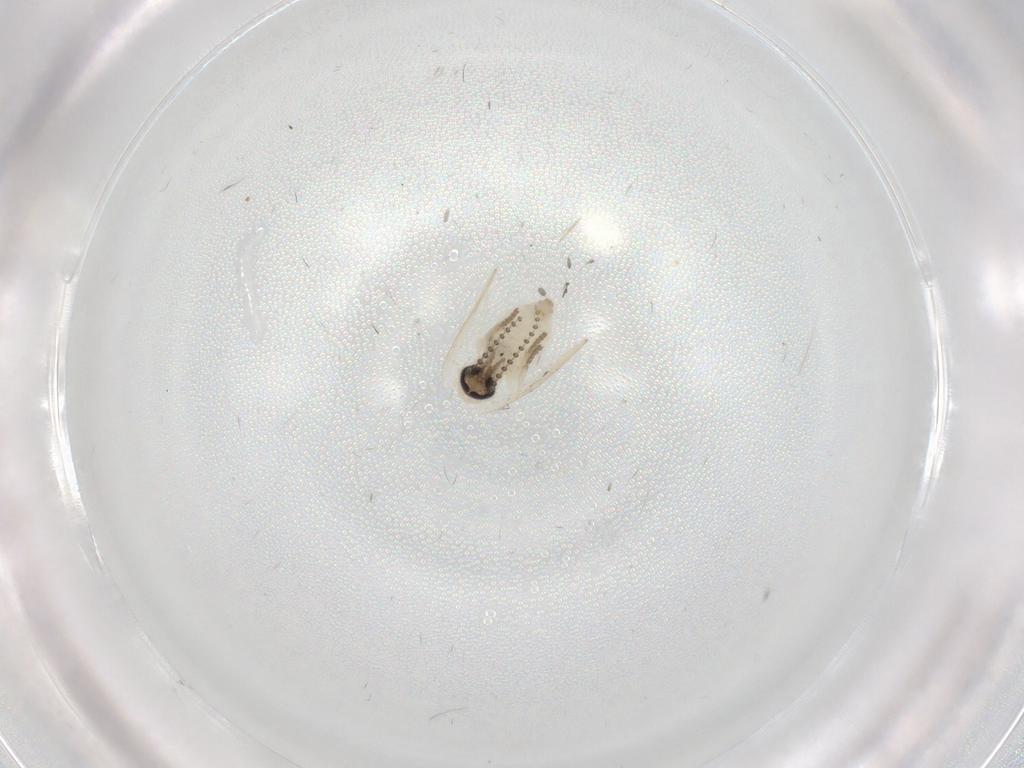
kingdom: Animalia
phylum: Arthropoda
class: Insecta
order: Diptera
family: Psychodidae
